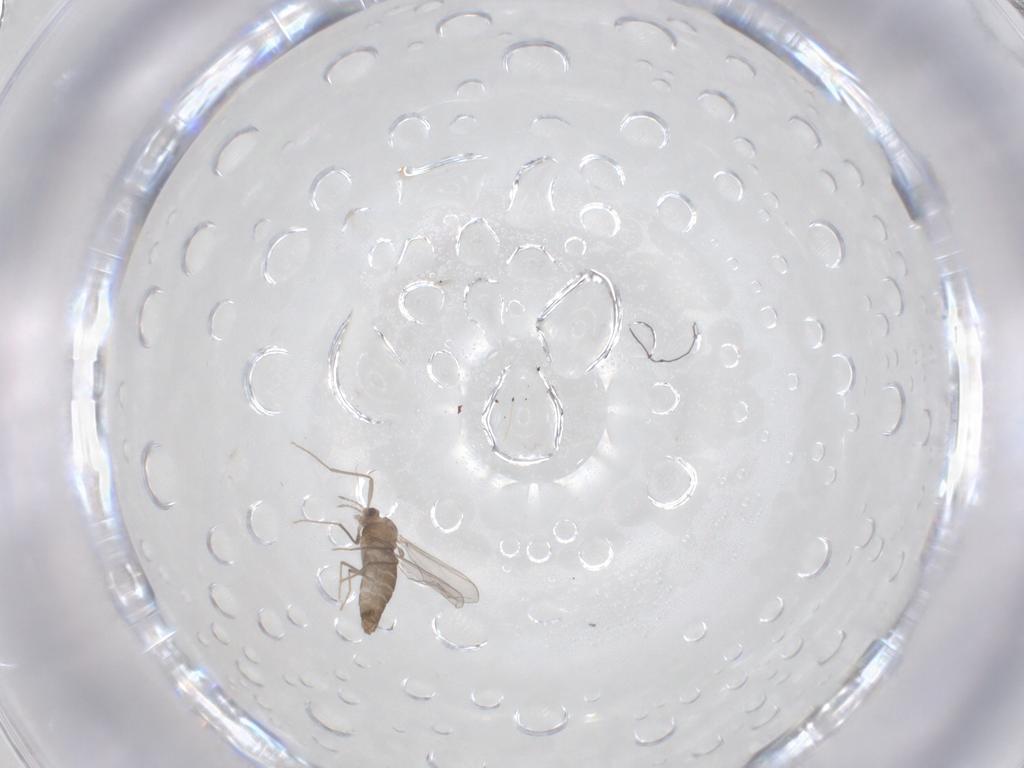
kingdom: Animalia
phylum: Arthropoda
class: Insecta
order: Diptera
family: Chironomidae
